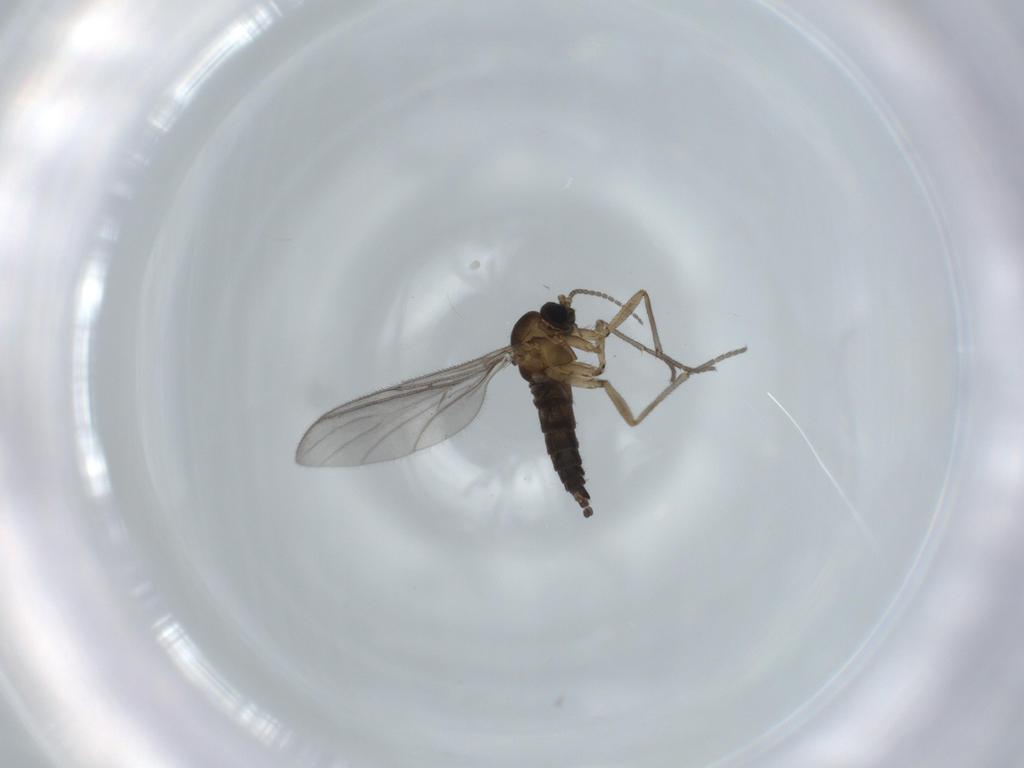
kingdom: Animalia
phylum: Arthropoda
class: Insecta
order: Diptera
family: Sciaridae
